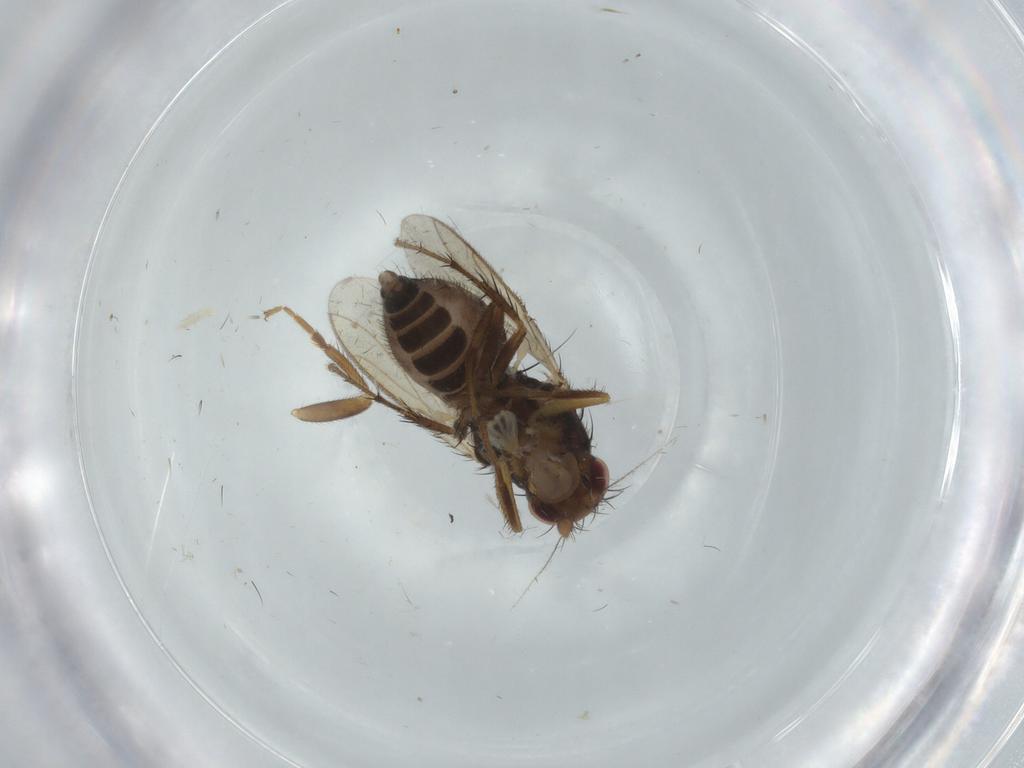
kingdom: Animalia
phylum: Arthropoda
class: Insecta
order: Diptera
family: Sphaeroceridae
